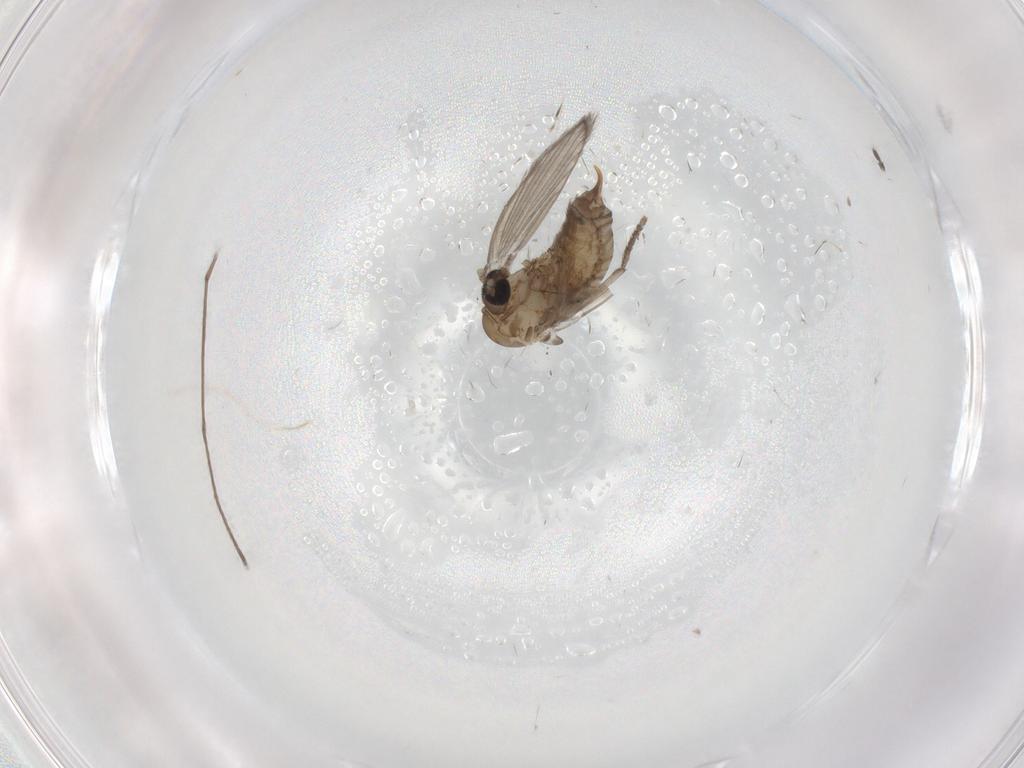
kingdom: Animalia
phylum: Arthropoda
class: Insecta
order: Diptera
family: Psychodidae
